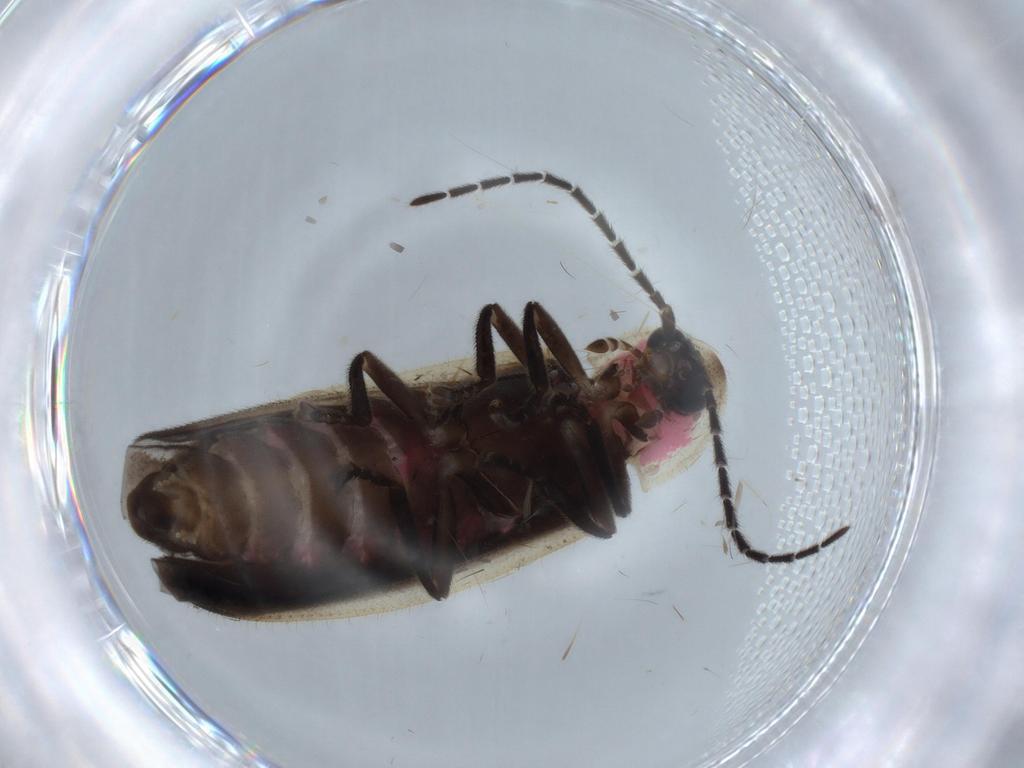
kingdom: Animalia
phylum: Arthropoda
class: Insecta
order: Coleoptera
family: Lampyridae
